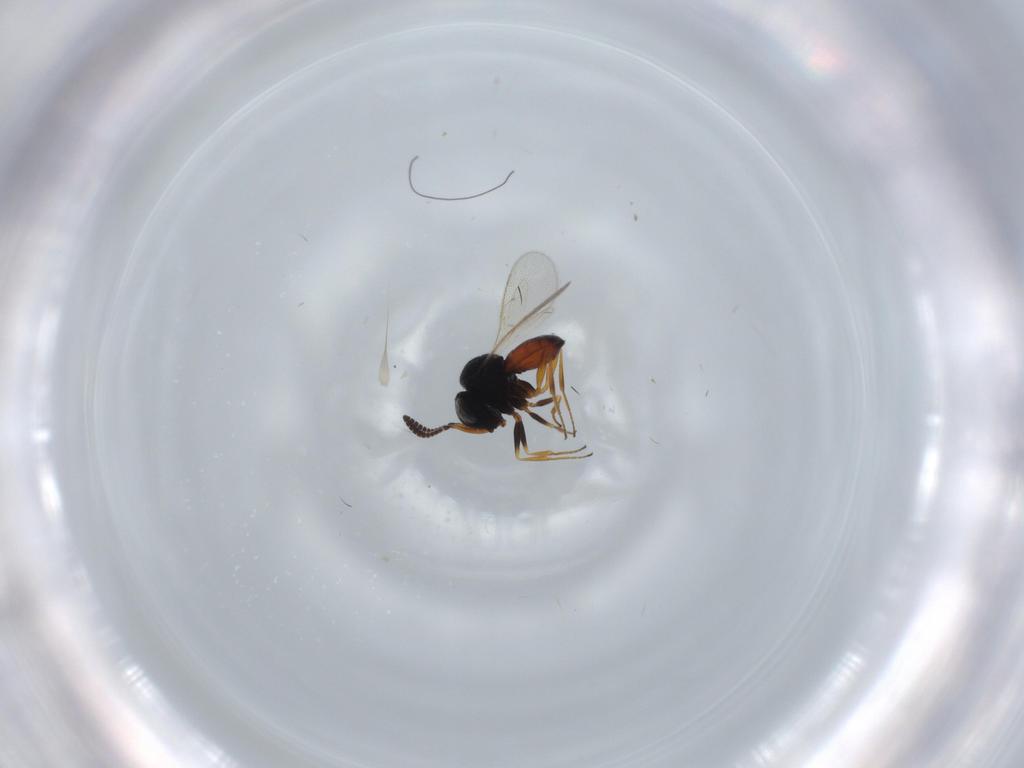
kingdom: Animalia
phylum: Arthropoda
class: Insecta
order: Hymenoptera
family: Scelionidae
